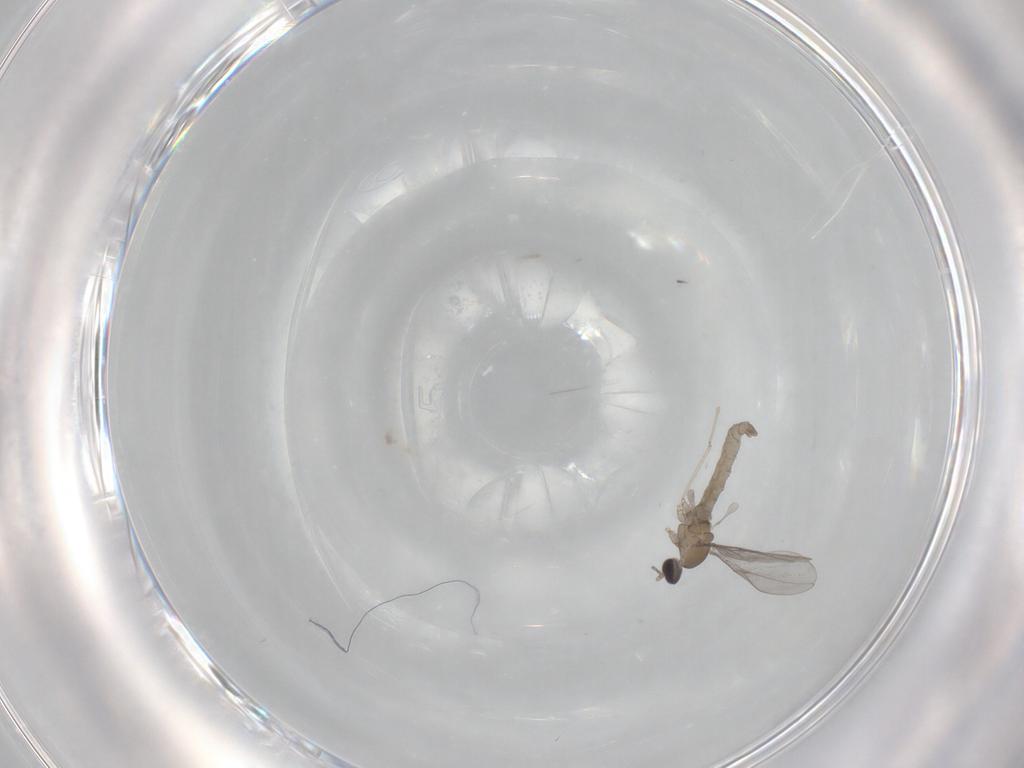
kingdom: Animalia
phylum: Arthropoda
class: Insecta
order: Diptera
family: Cecidomyiidae
